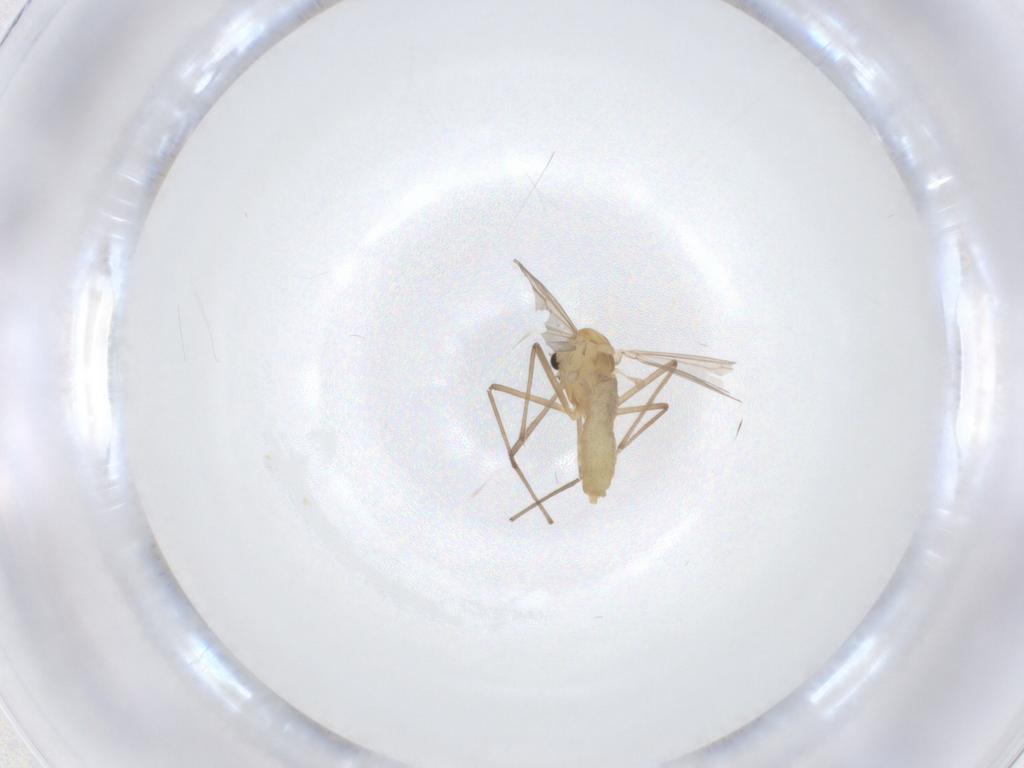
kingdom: Animalia
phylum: Arthropoda
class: Insecta
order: Diptera
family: Chironomidae
